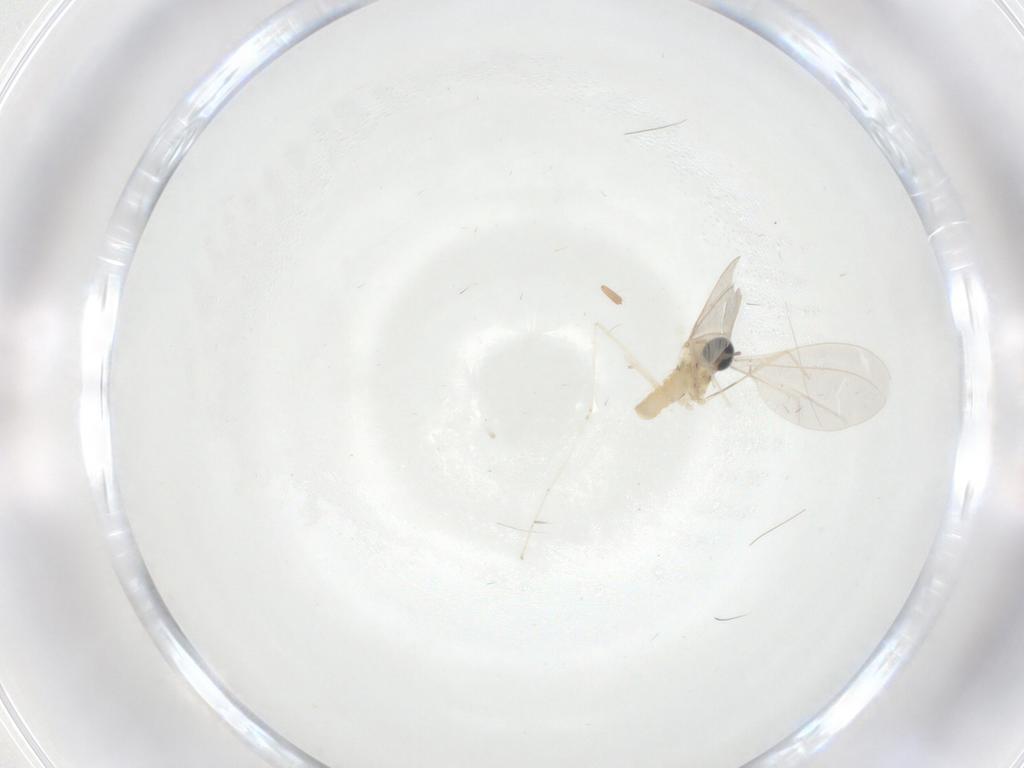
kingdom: Animalia
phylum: Arthropoda
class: Insecta
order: Diptera
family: Cecidomyiidae
